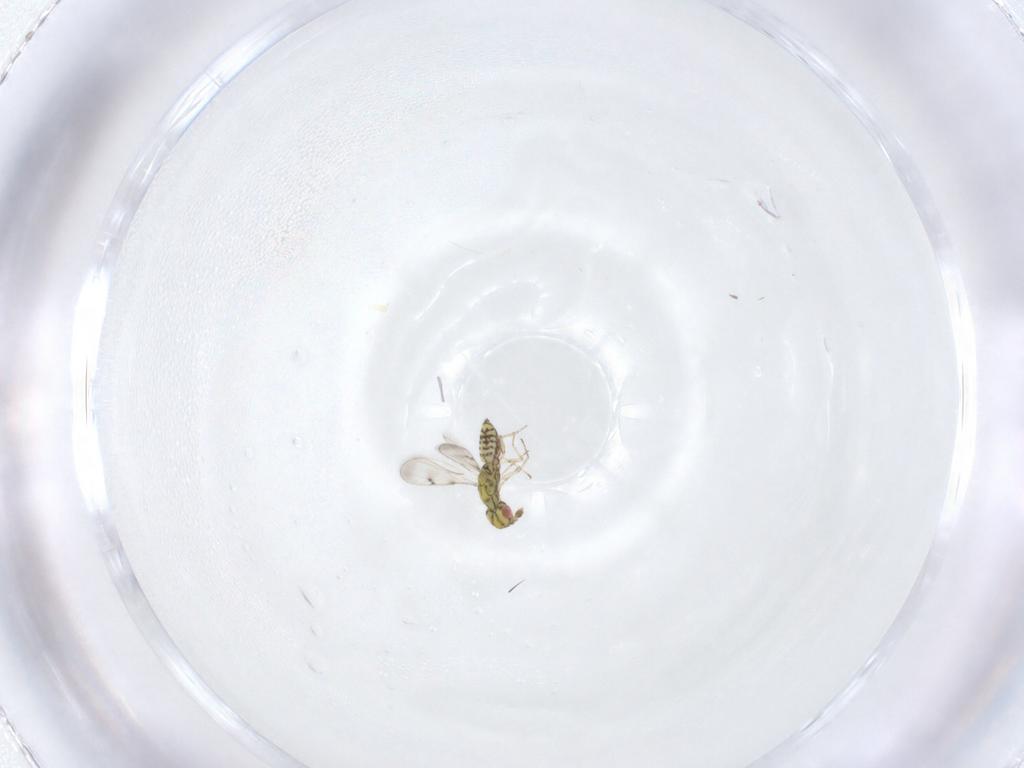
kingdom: Animalia
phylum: Arthropoda
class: Insecta
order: Hymenoptera
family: Eulophidae
